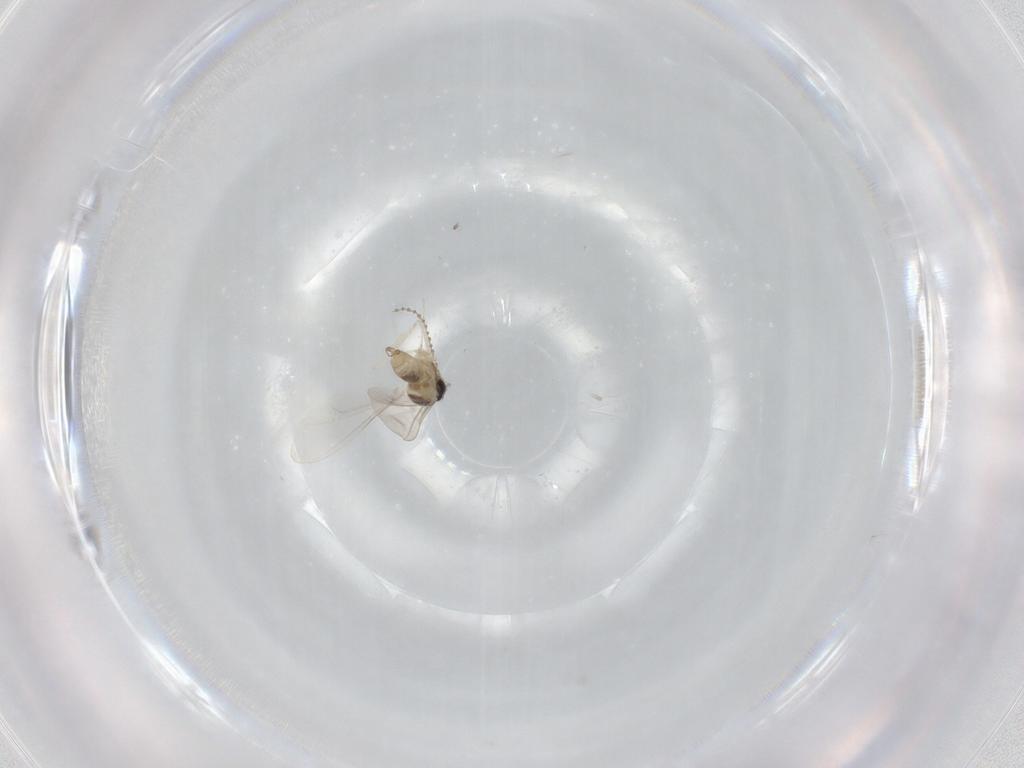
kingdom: Animalia
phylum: Arthropoda
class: Insecta
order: Diptera
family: Cecidomyiidae
